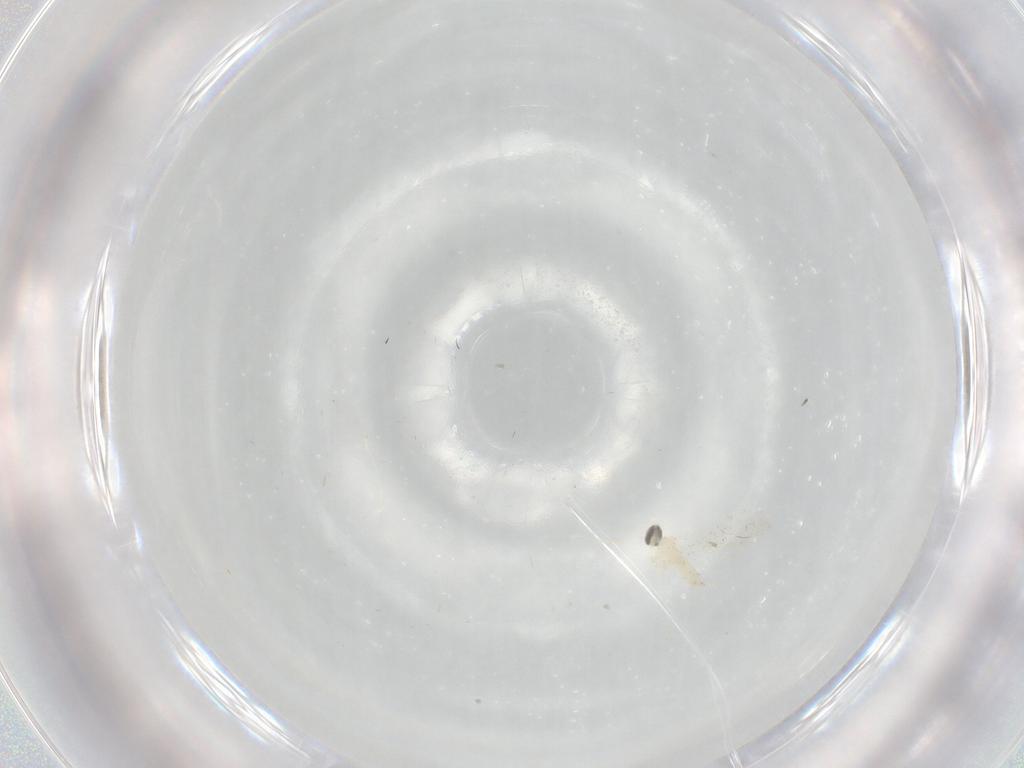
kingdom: Animalia
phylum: Arthropoda
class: Insecta
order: Diptera
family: Cecidomyiidae
